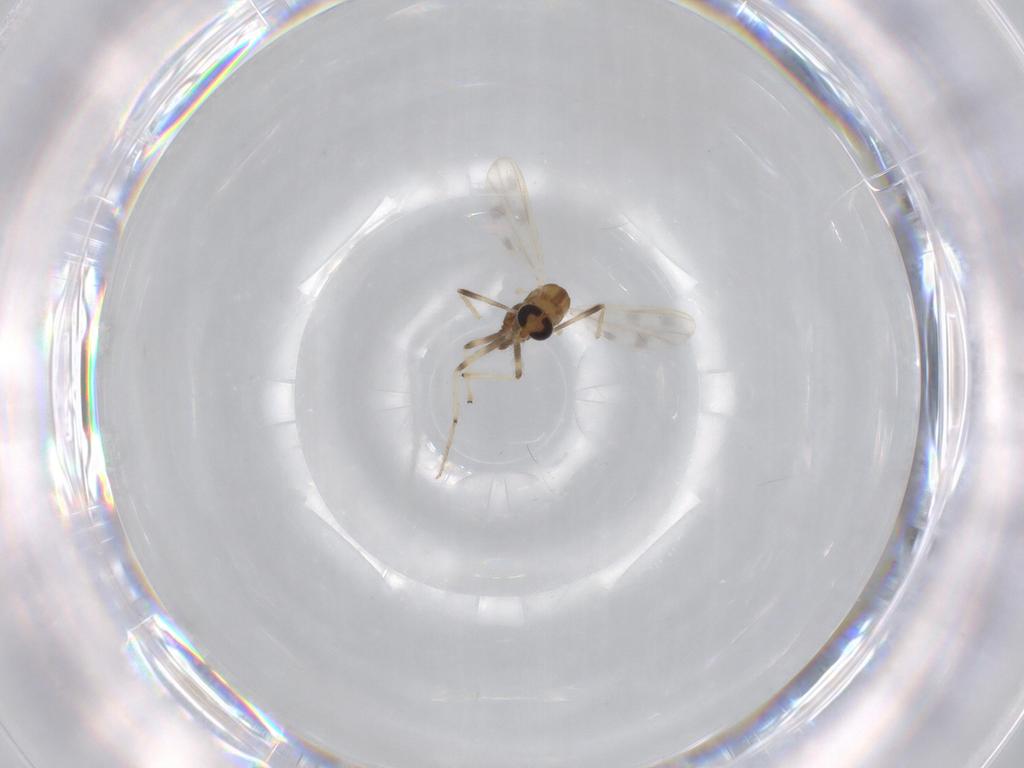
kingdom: Animalia
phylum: Arthropoda
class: Insecta
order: Diptera
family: Chironomidae
